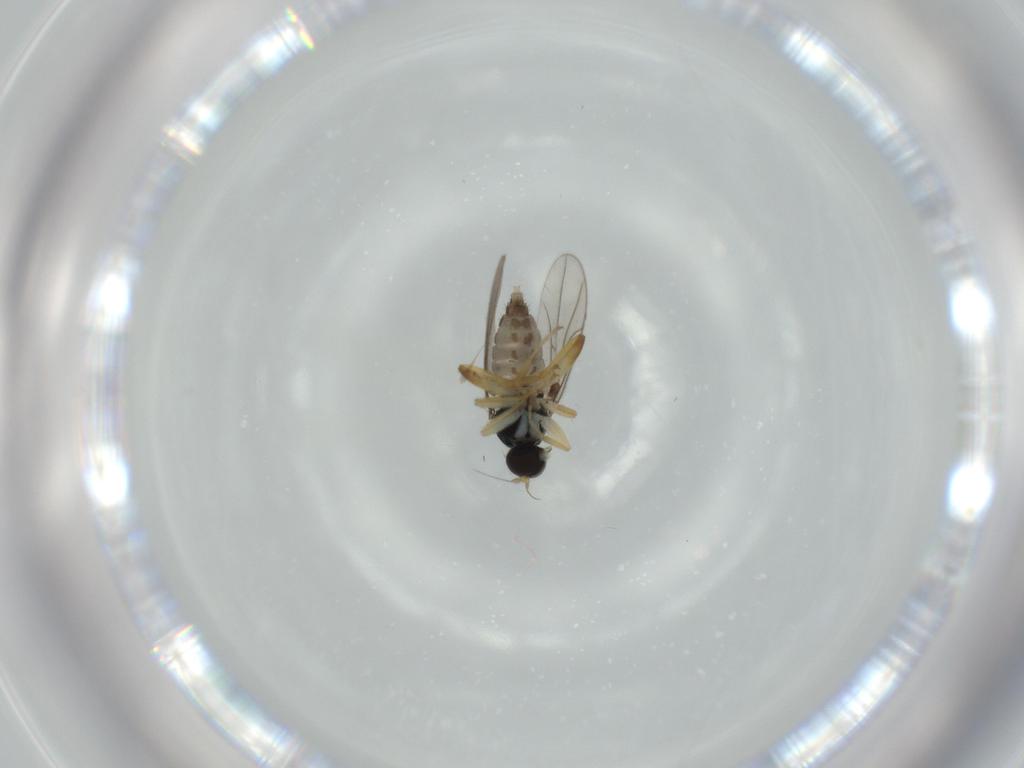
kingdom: Animalia
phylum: Arthropoda
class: Insecta
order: Diptera
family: Hybotidae
